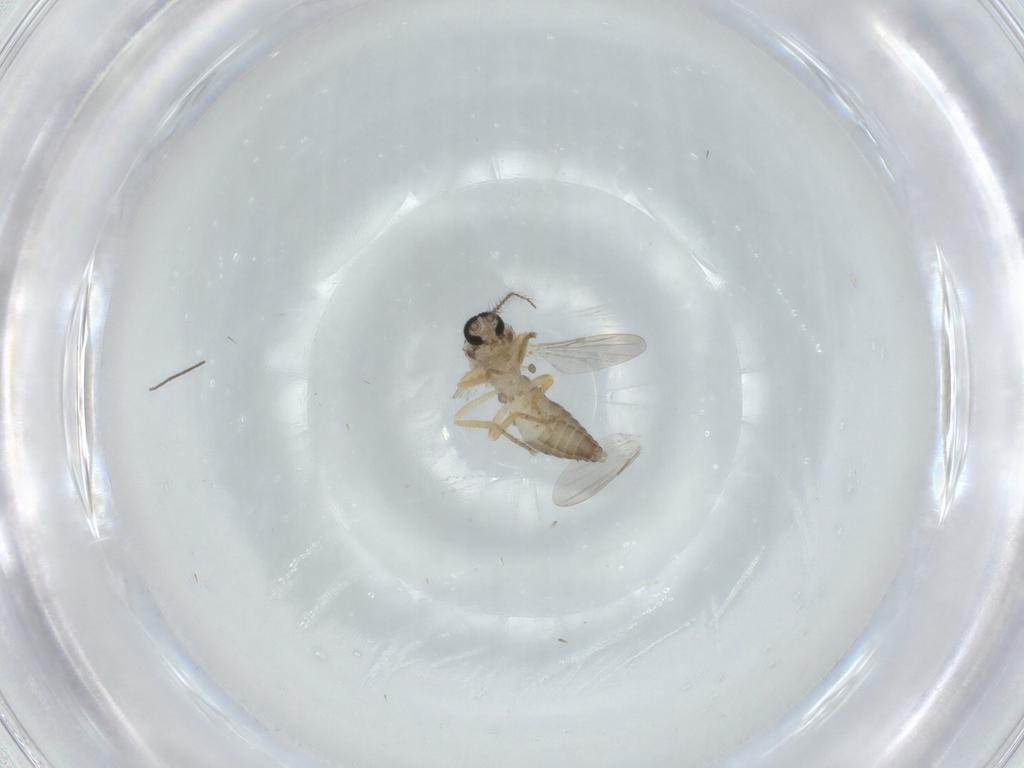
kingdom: Animalia
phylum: Arthropoda
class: Insecta
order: Diptera
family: Ceratopogonidae
